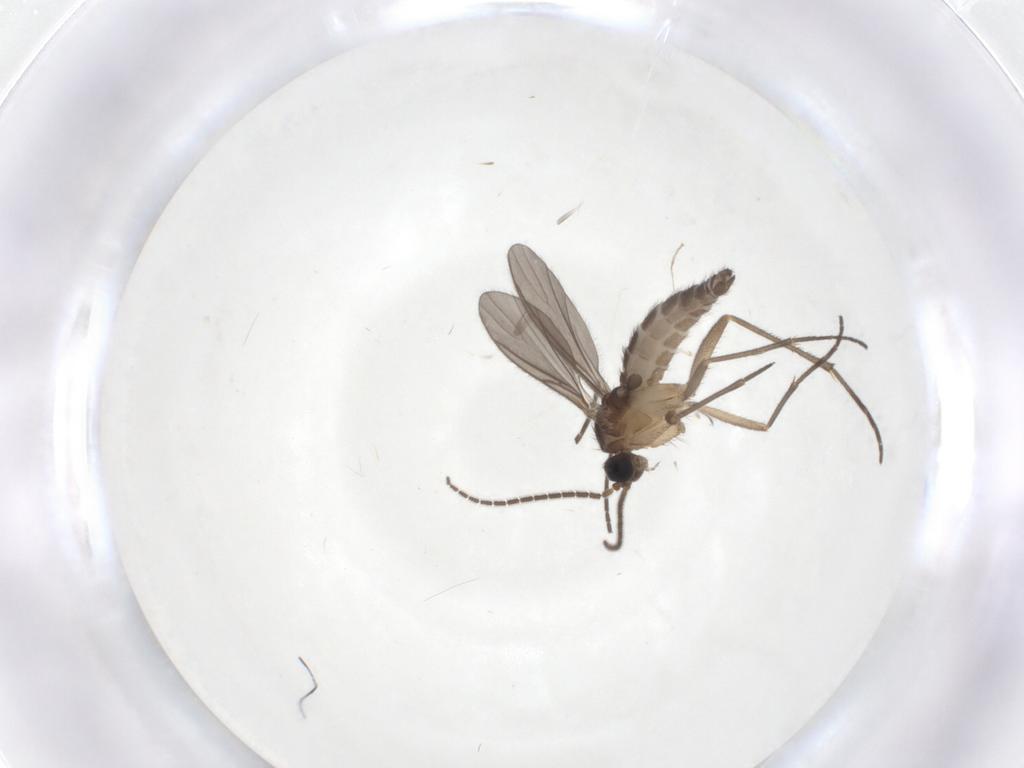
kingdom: Animalia
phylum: Arthropoda
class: Insecta
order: Diptera
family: Sciaridae
